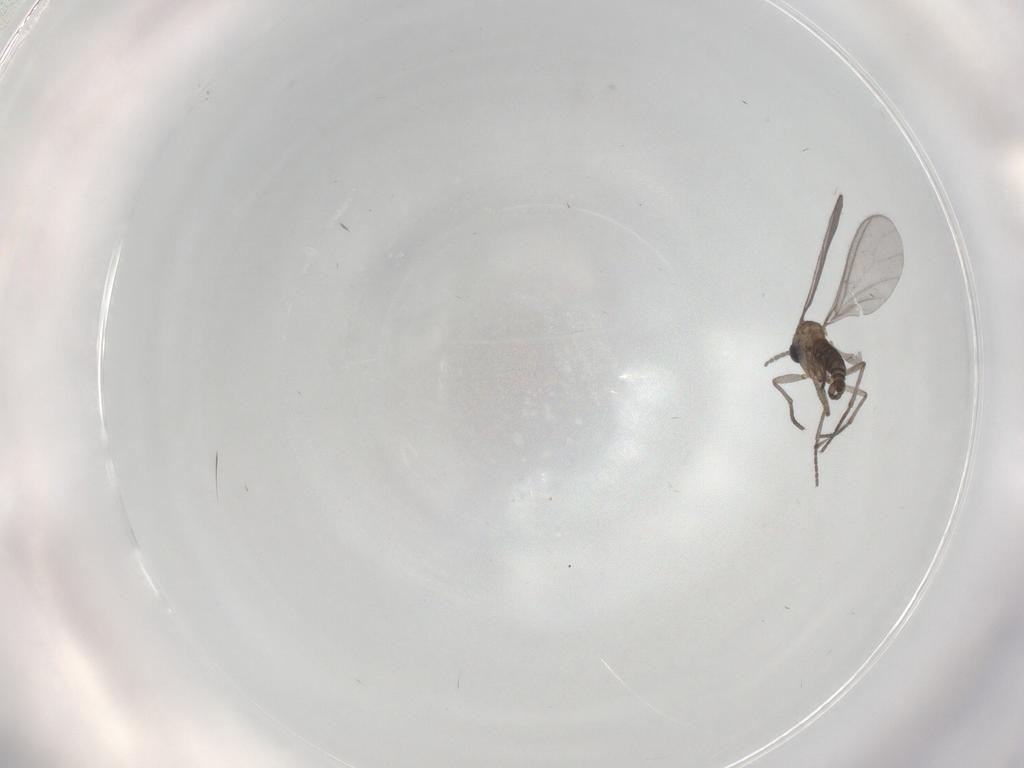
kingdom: Animalia
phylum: Arthropoda
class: Insecta
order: Diptera
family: Sciaridae
